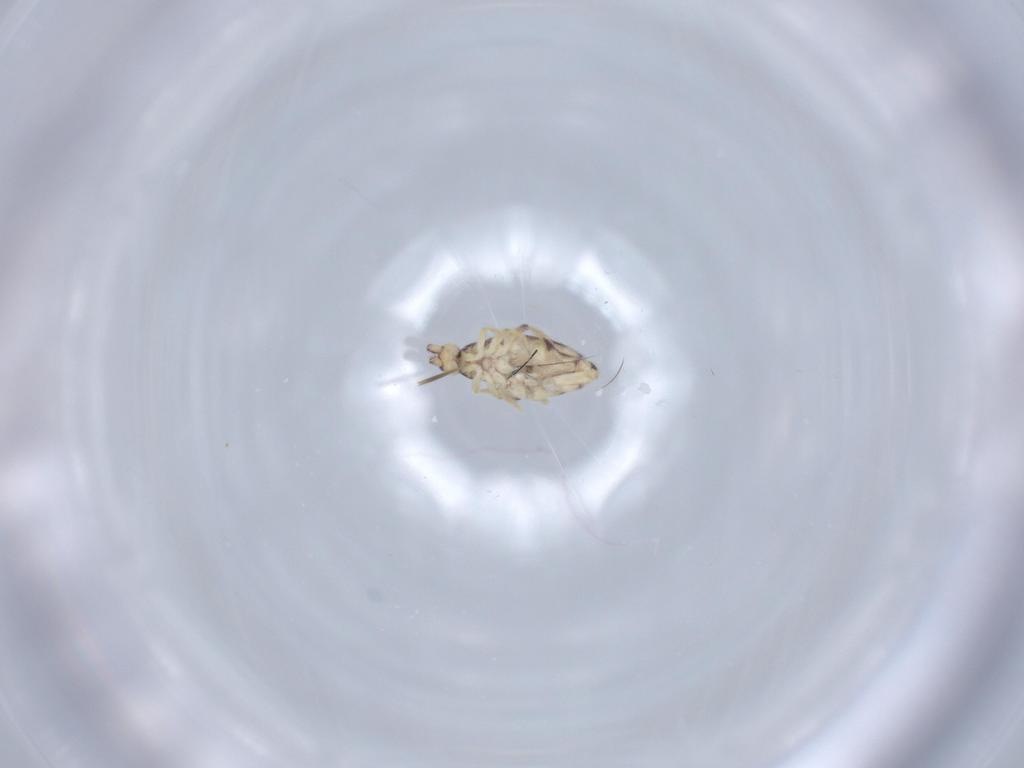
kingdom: Animalia
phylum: Arthropoda
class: Collembola
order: Entomobryomorpha
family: Entomobryidae
